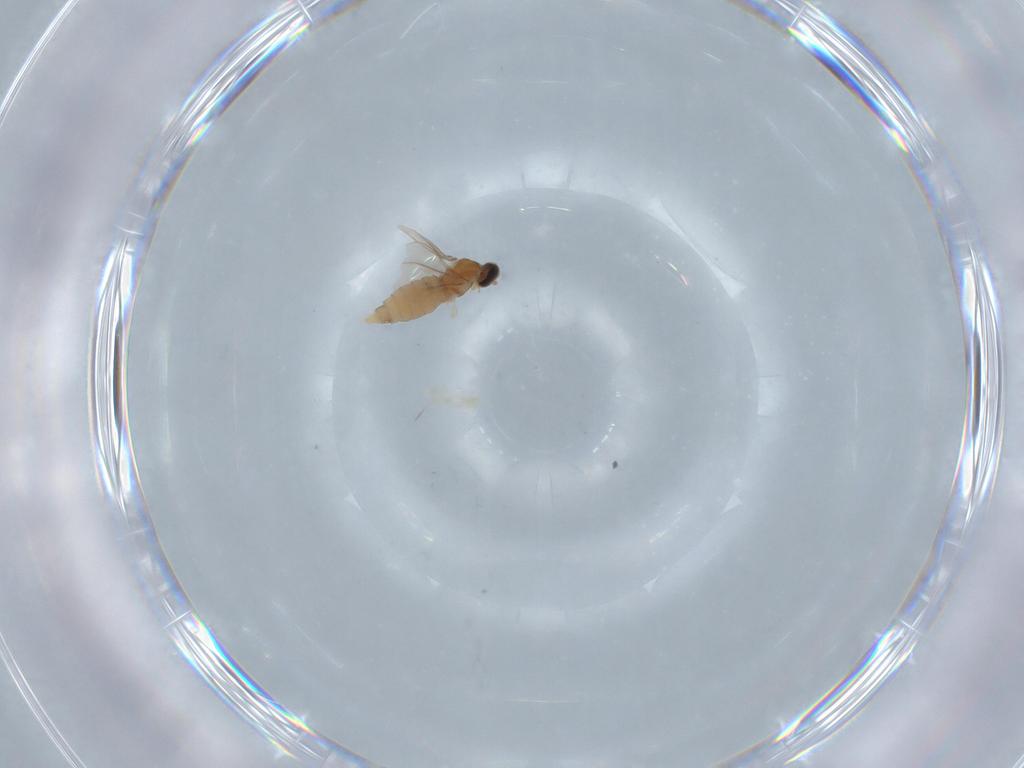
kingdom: Animalia
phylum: Arthropoda
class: Insecta
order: Diptera
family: Cecidomyiidae
